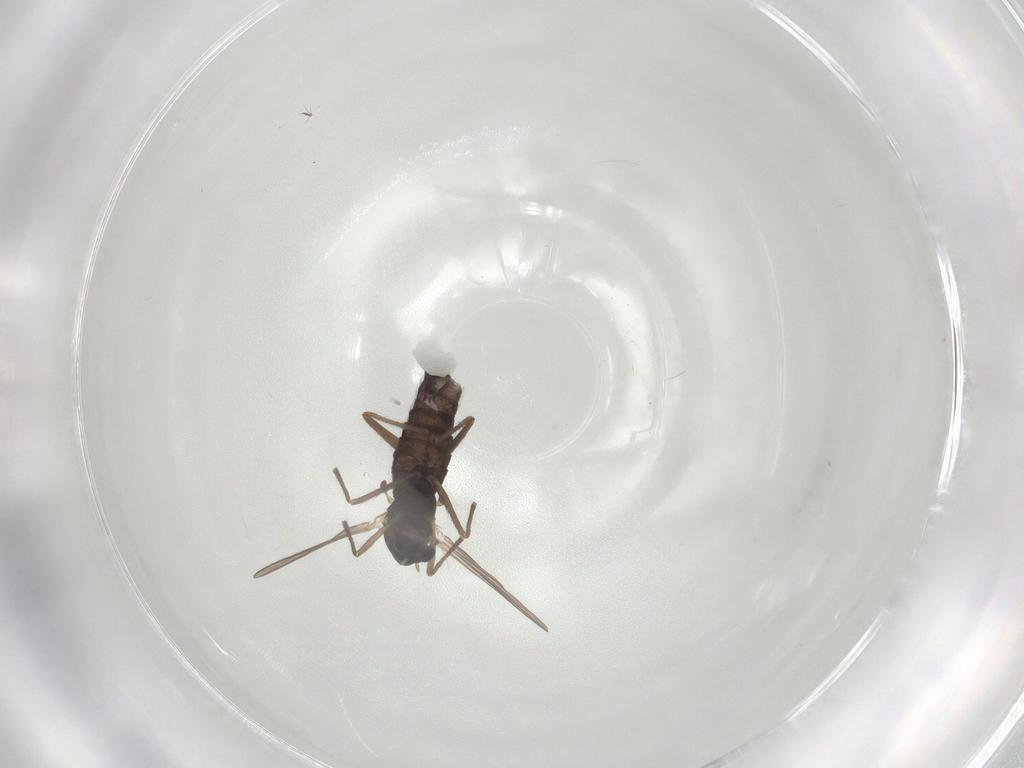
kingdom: Animalia
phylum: Arthropoda
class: Insecta
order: Diptera
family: Chironomidae
